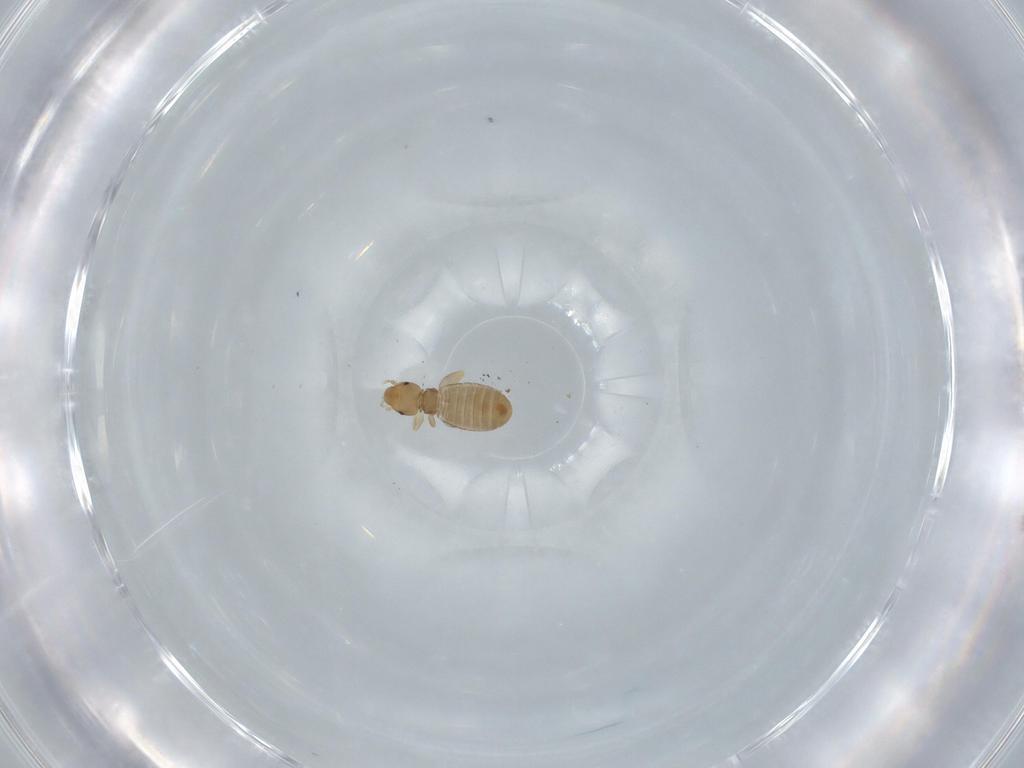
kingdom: Animalia
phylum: Arthropoda
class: Insecta
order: Psocodea
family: Liposcelididae
